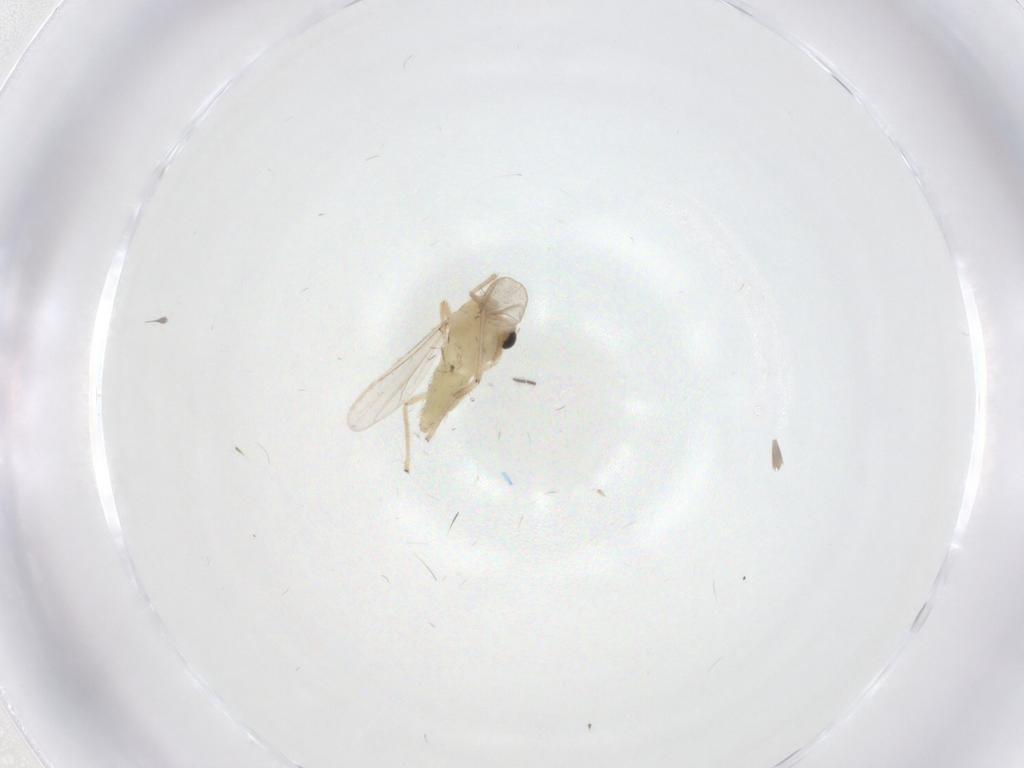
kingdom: Animalia
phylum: Arthropoda
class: Insecta
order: Diptera
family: Chironomidae
